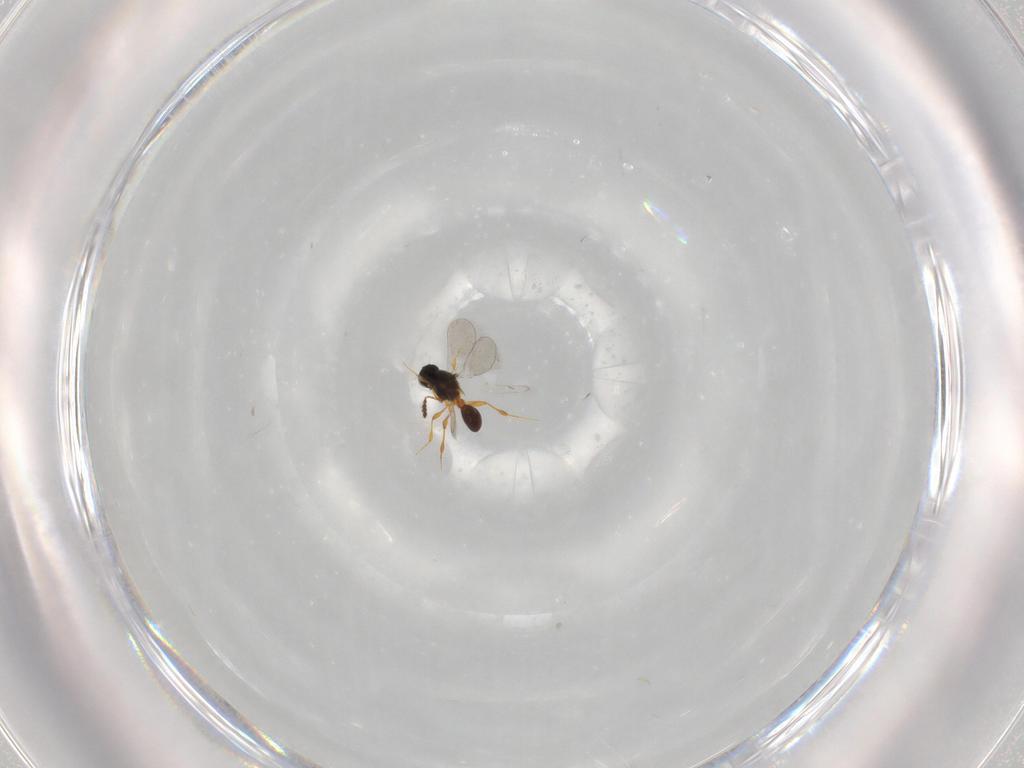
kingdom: Animalia
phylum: Arthropoda
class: Insecta
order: Hymenoptera
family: Platygastridae
